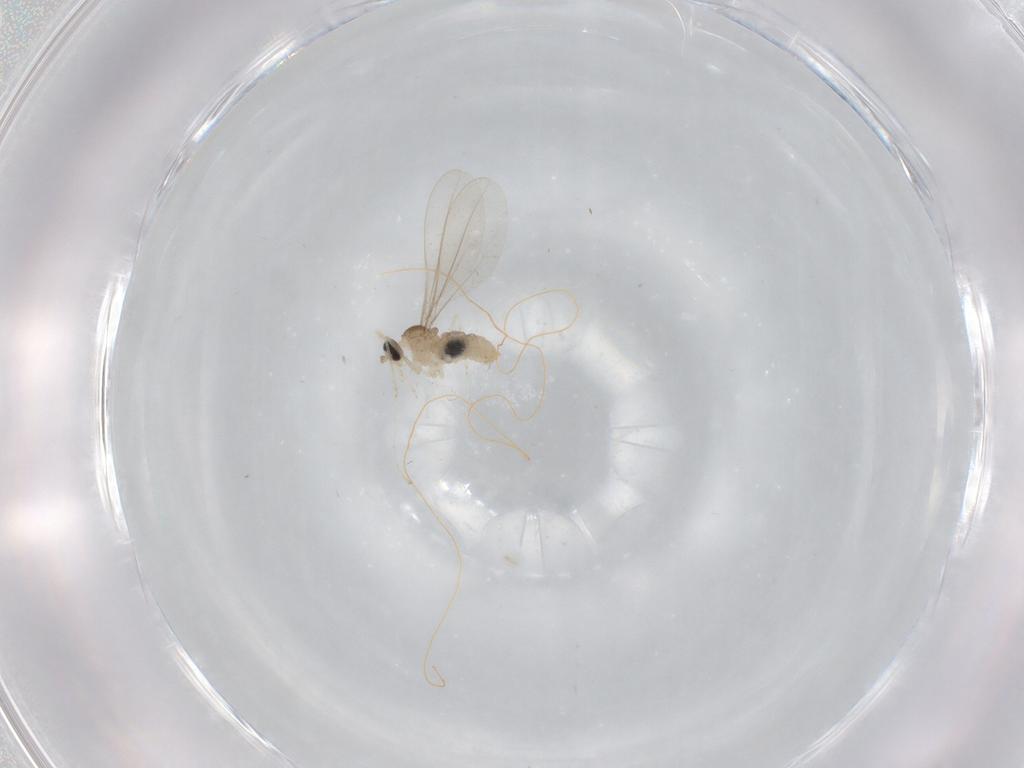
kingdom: Animalia
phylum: Arthropoda
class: Insecta
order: Diptera
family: Cecidomyiidae
